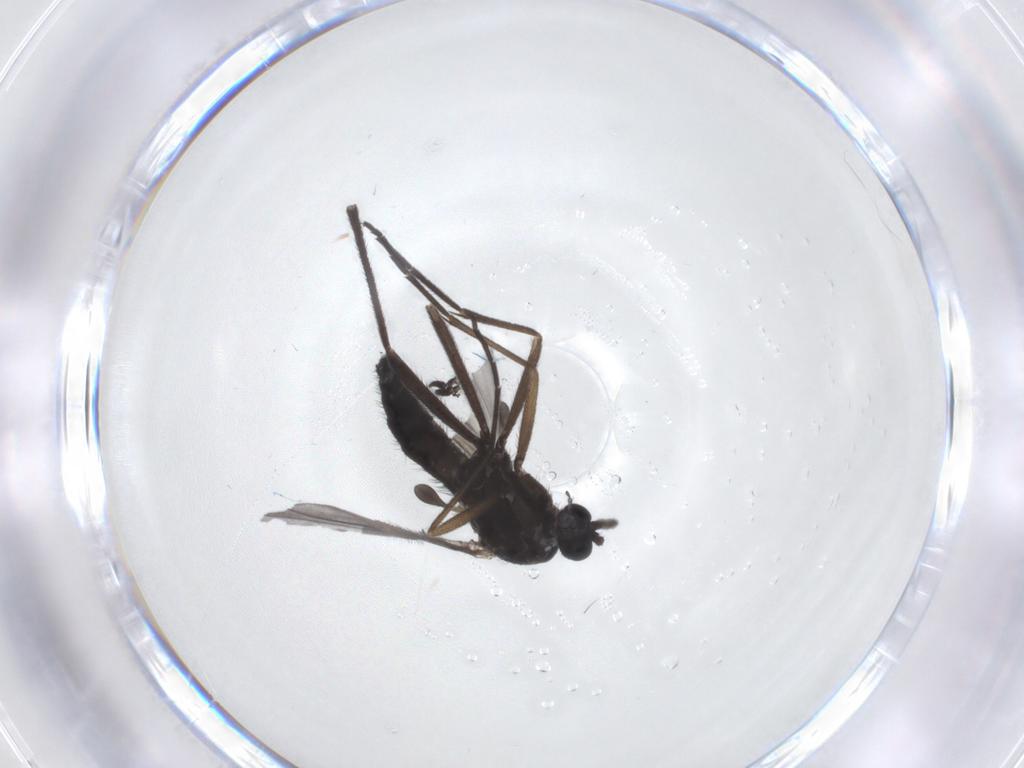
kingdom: Animalia
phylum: Arthropoda
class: Insecta
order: Diptera
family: Sciaridae
